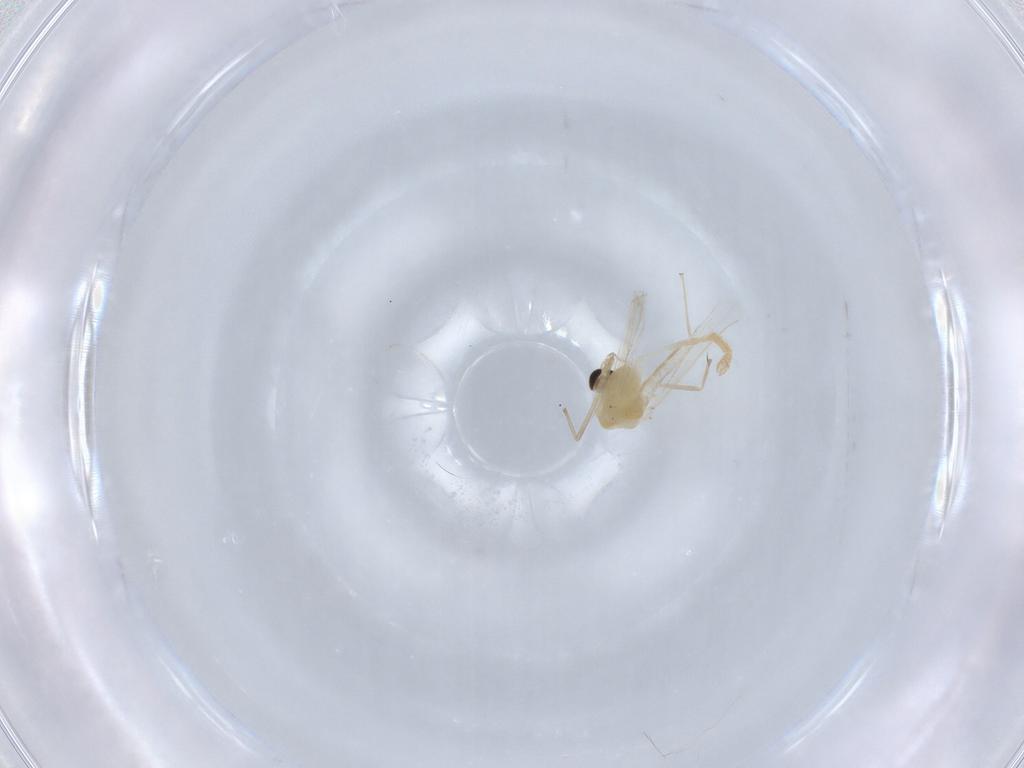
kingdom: Animalia
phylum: Arthropoda
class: Insecta
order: Diptera
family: Chironomidae
